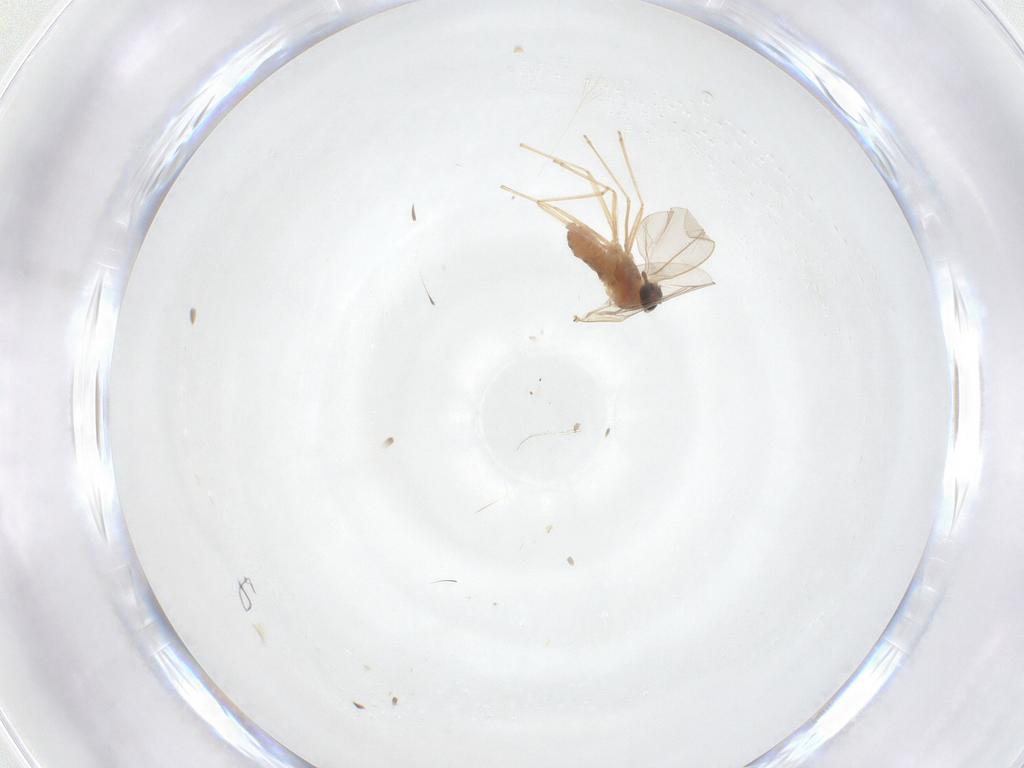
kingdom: Animalia
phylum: Arthropoda
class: Insecta
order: Diptera
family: Cecidomyiidae
